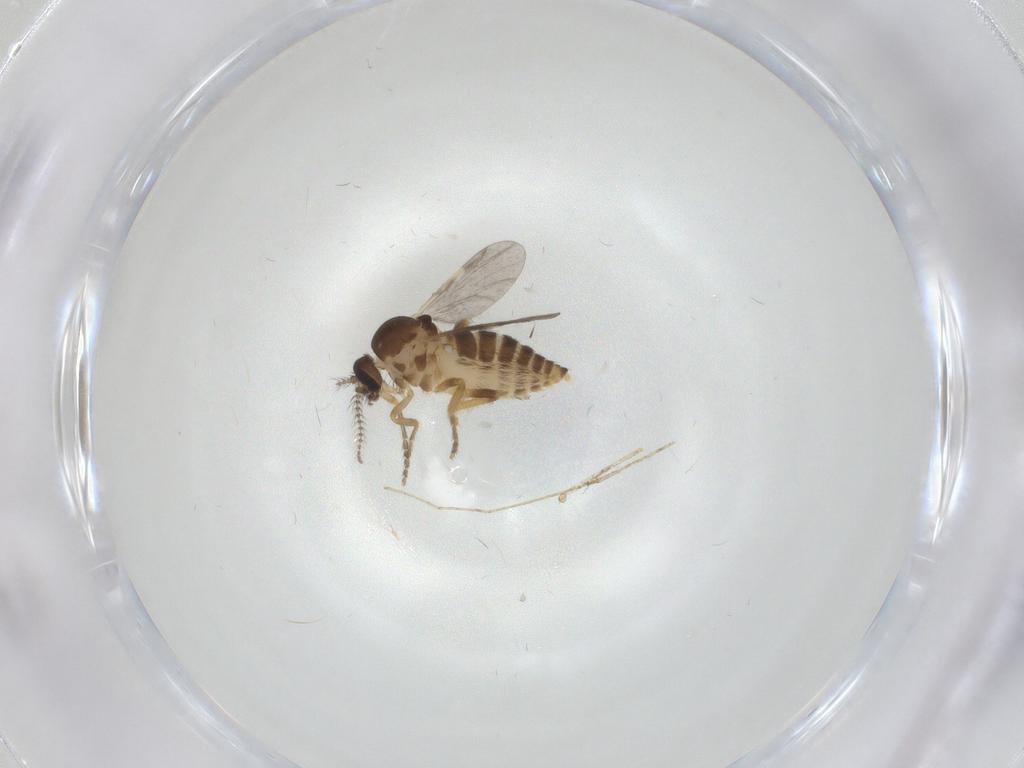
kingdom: Animalia
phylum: Arthropoda
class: Insecta
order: Diptera
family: Ceratopogonidae
